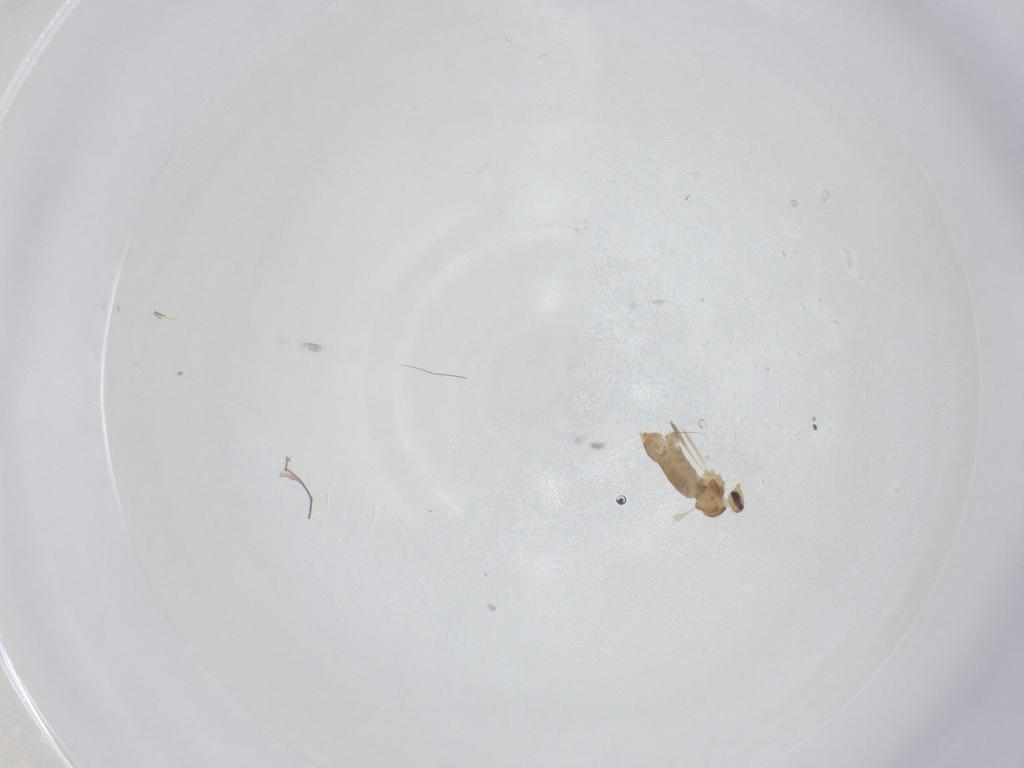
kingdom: Animalia
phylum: Arthropoda
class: Insecta
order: Diptera
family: Cecidomyiidae
